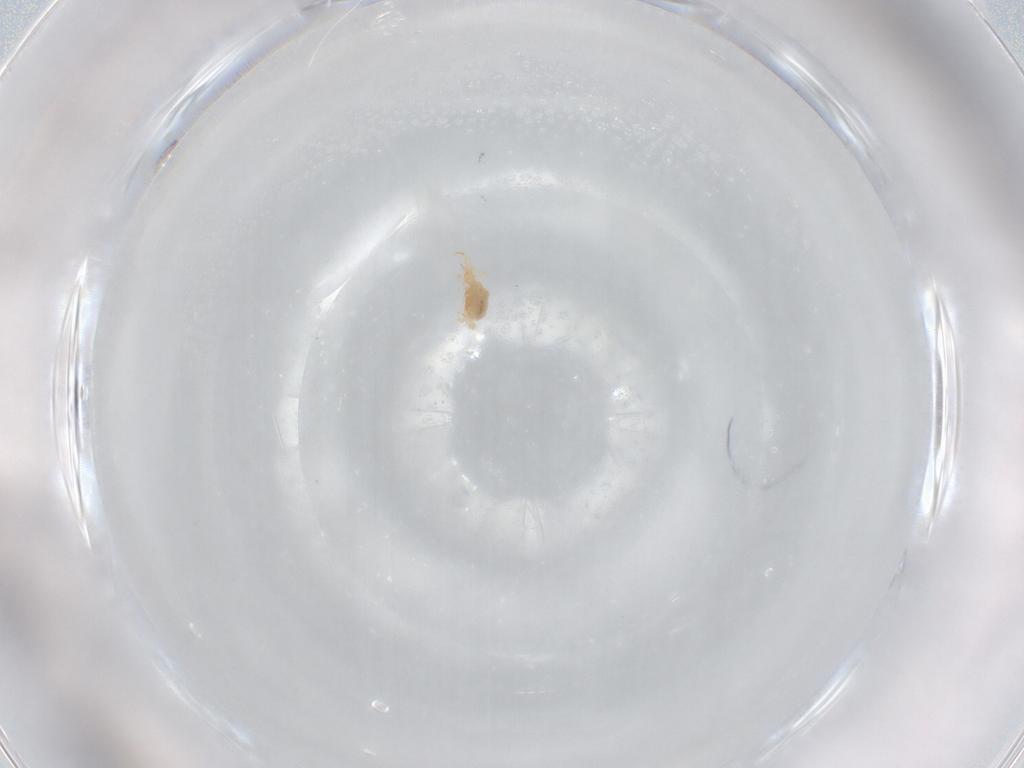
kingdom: Animalia
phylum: Arthropoda
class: Arachnida
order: Trombidiformes
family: Cunaxidae
